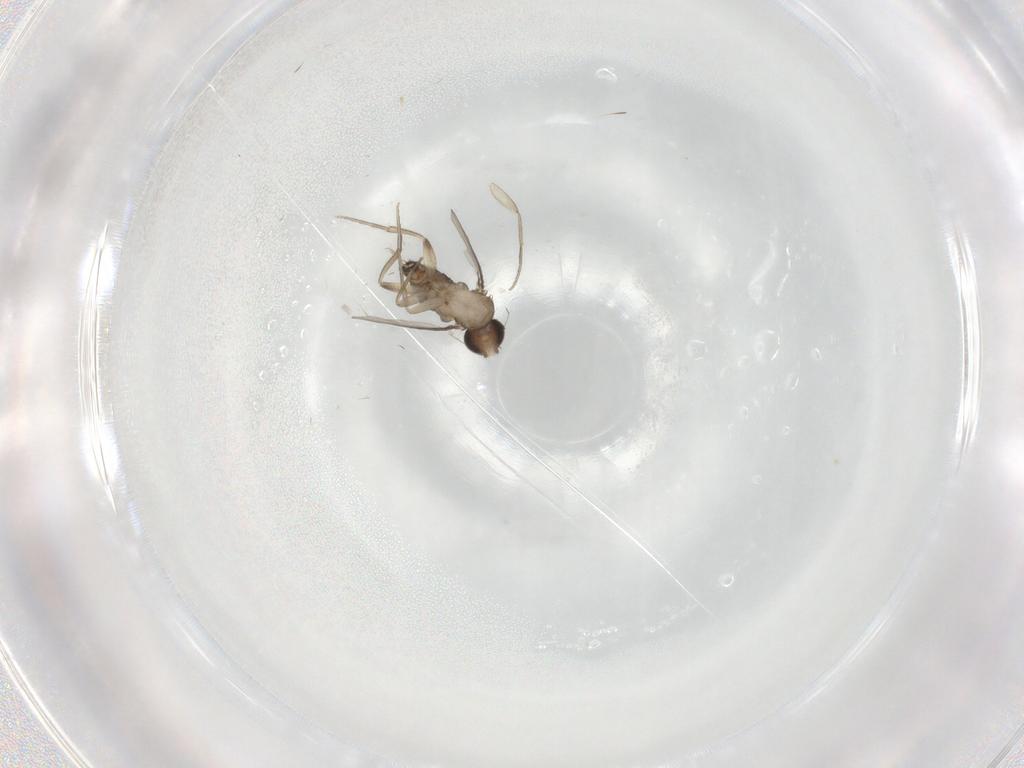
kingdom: Animalia
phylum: Arthropoda
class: Insecta
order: Diptera
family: Phoridae
